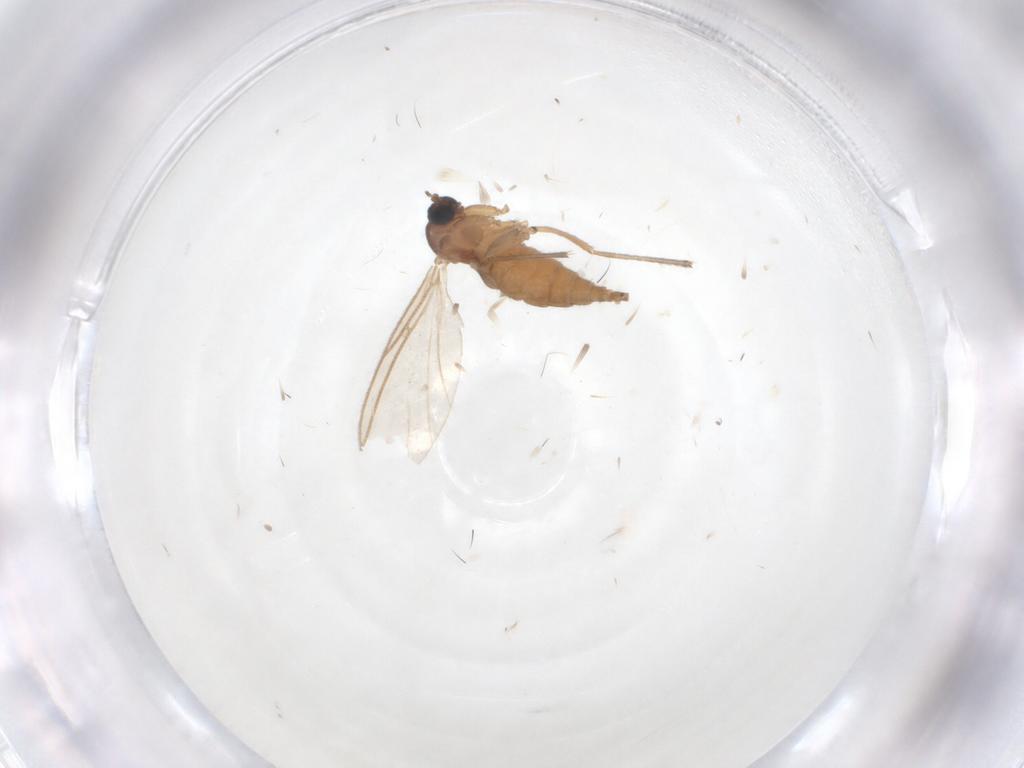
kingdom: Animalia
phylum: Arthropoda
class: Insecta
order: Diptera
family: Sciaridae
